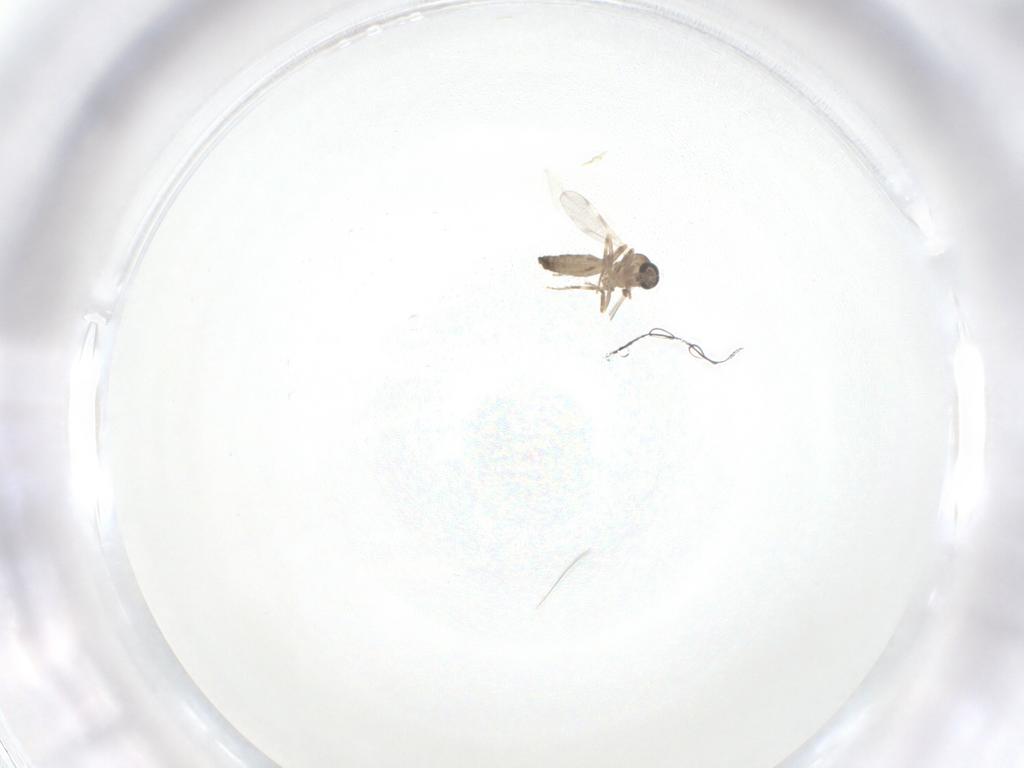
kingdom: Animalia
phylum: Arthropoda
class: Insecta
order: Diptera
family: Ceratopogonidae
